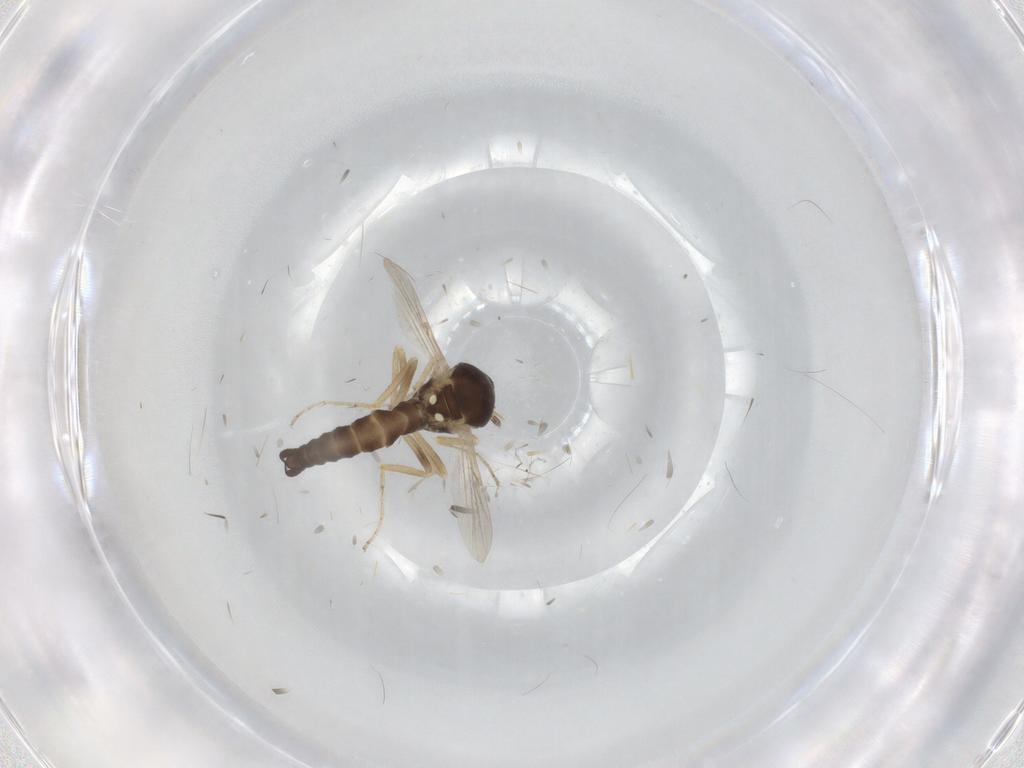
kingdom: Animalia
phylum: Arthropoda
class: Insecta
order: Diptera
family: Ceratopogonidae
